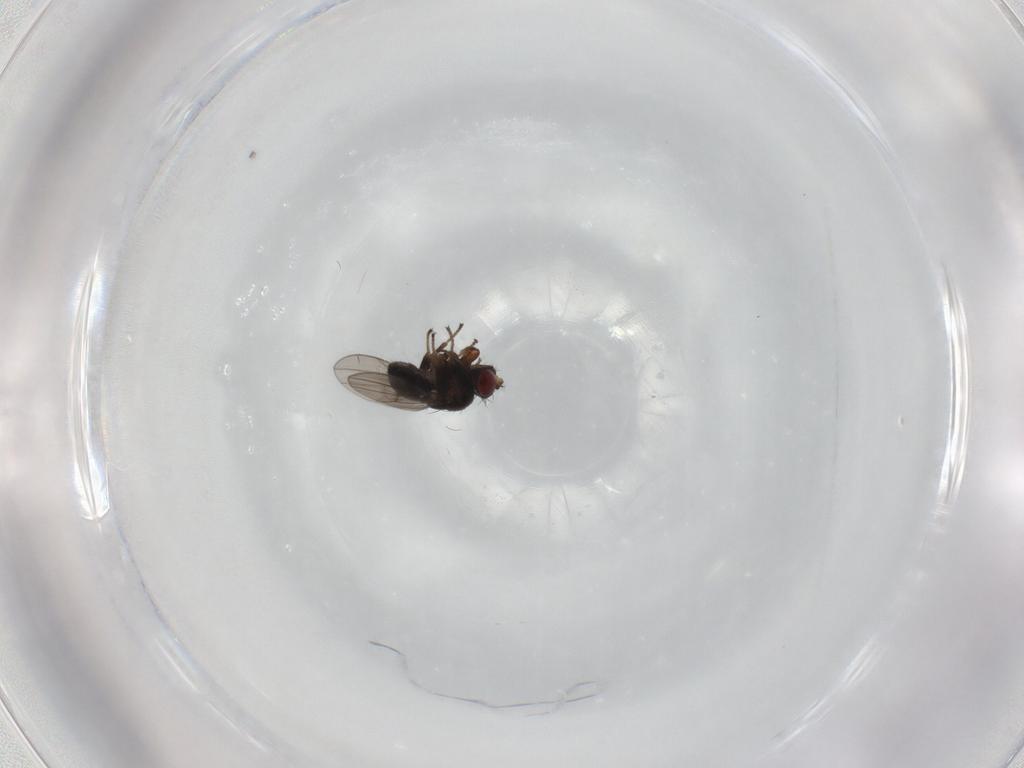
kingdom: Animalia
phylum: Arthropoda
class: Insecta
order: Diptera
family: Ephydridae
